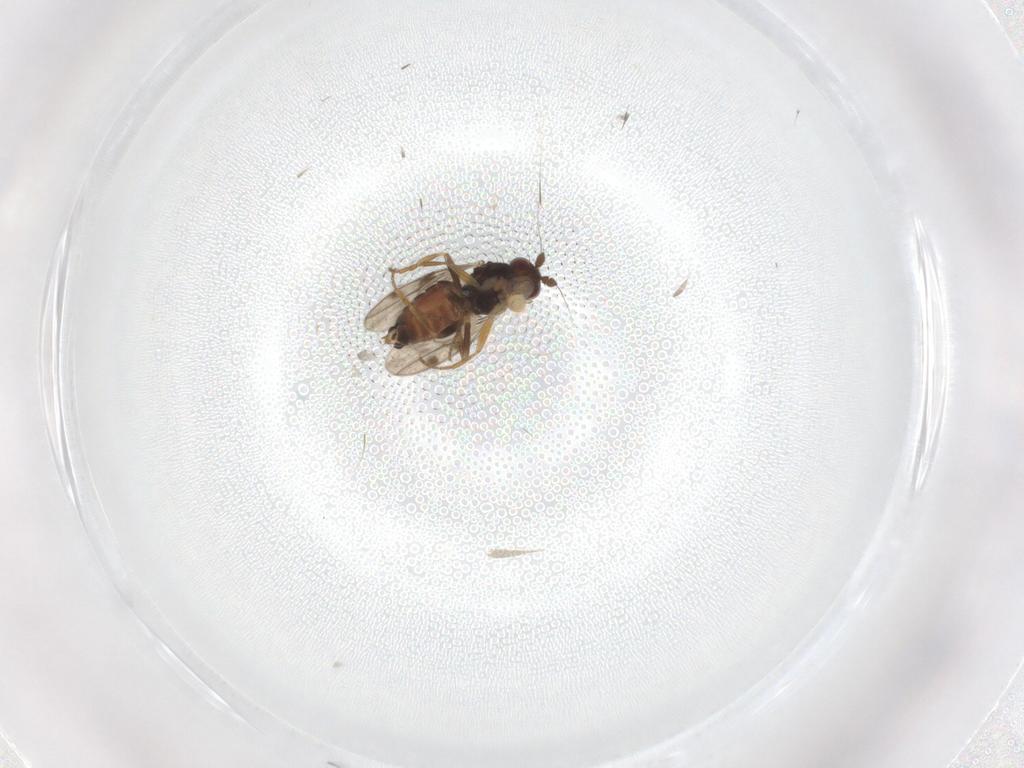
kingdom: Animalia
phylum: Arthropoda
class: Insecta
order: Diptera
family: Sphaeroceridae
